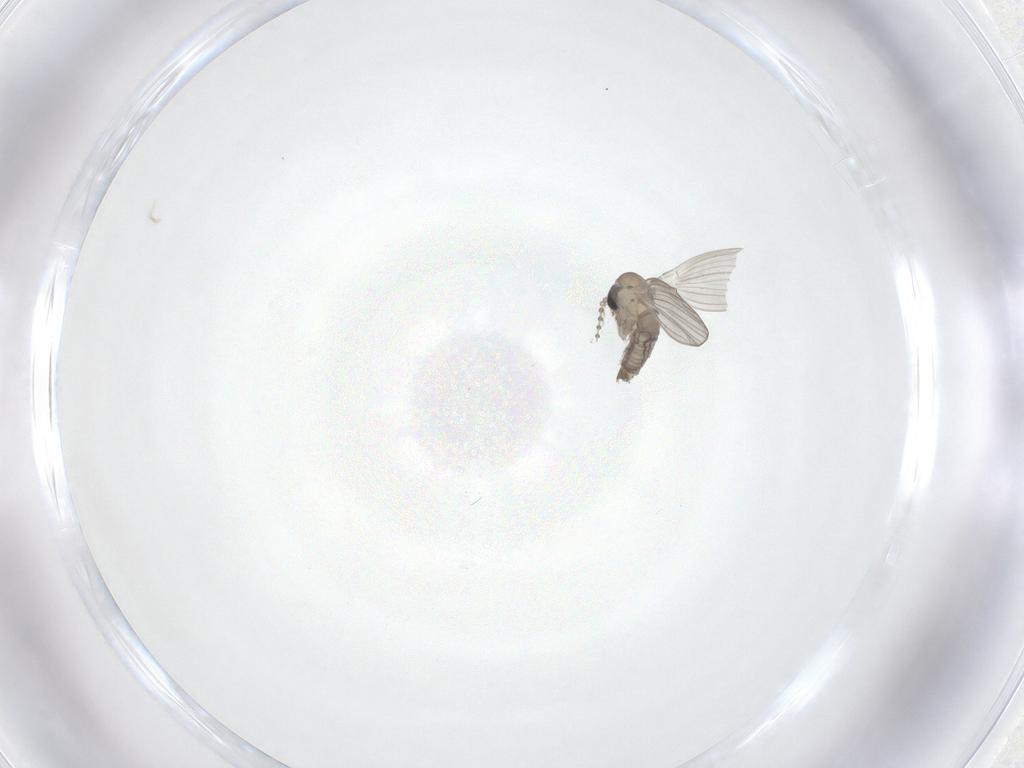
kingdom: Animalia
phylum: Arthropoda
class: Insecta
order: Diptera
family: Psychodidae
